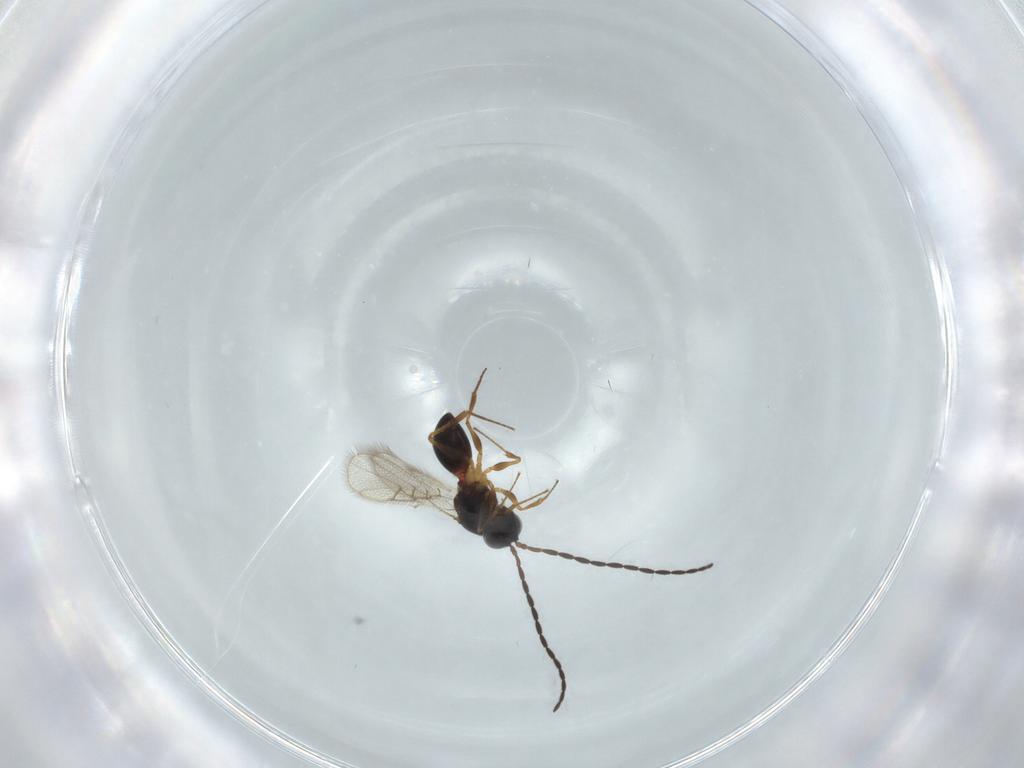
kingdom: Animalia
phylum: Arthropoda
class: Insecta
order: Hymenoptera
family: Figitidae
